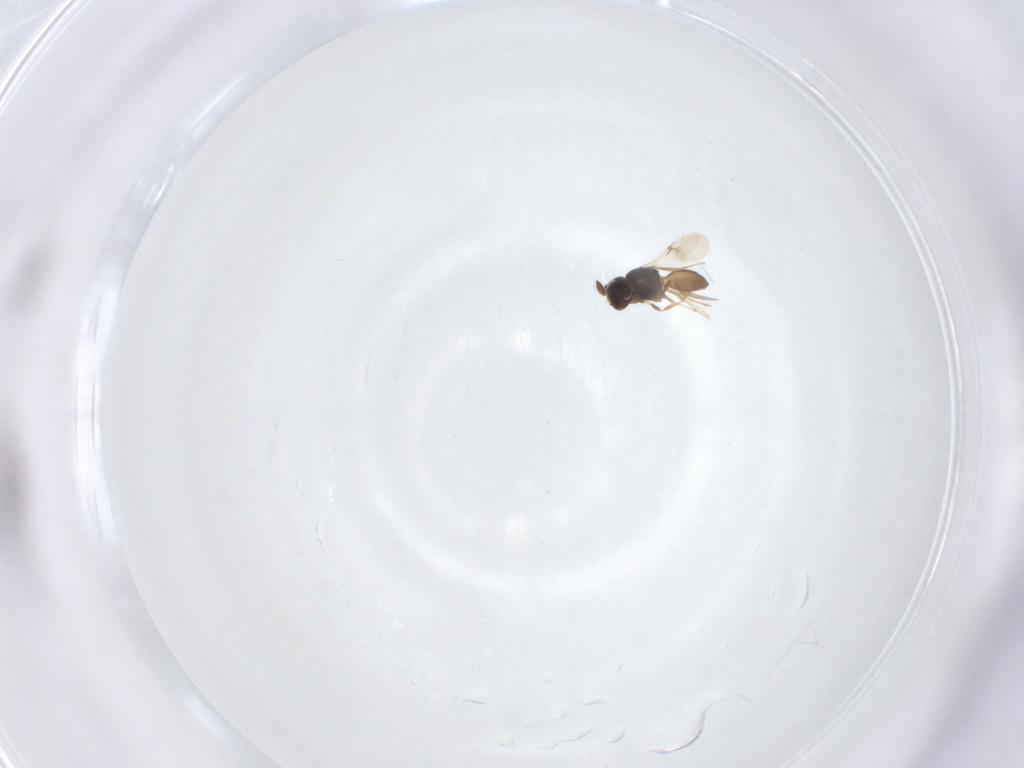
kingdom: Animalia
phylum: Arthropoda
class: Insecta
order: Hymenoptera
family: Scelionidae
